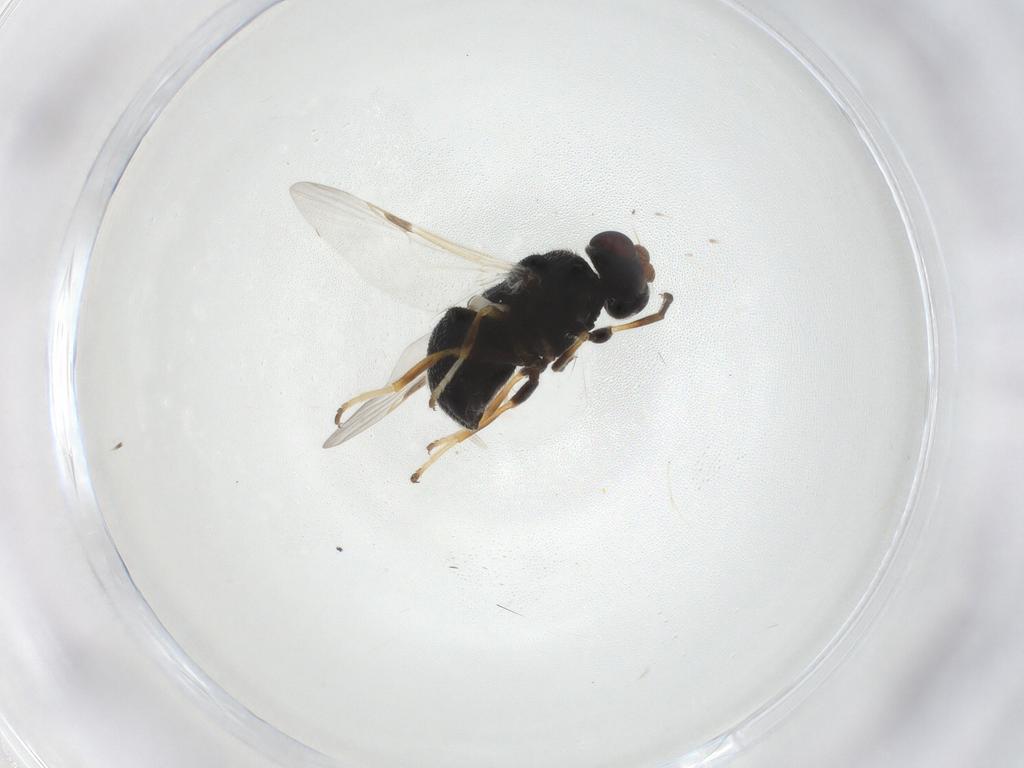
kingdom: Animalia
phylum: Arthropoda
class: Insecta
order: Diptera
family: Stratiomyidae
